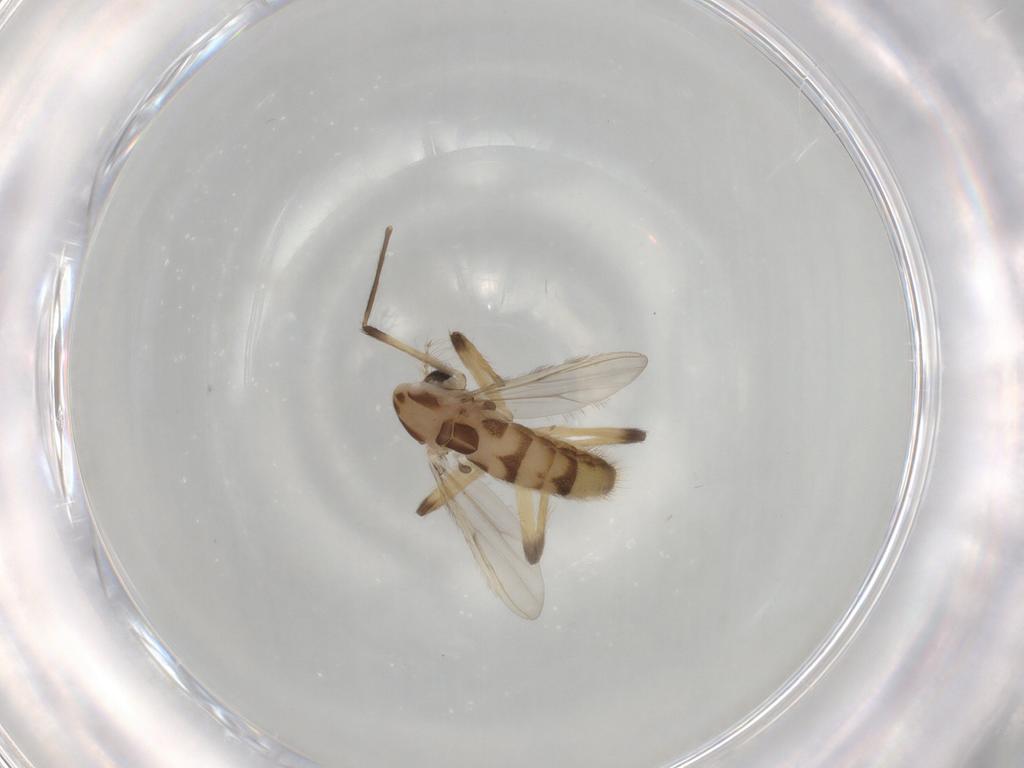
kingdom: Animalia
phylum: Arthropoda
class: Insecta
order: Diptera
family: Chironomidae
